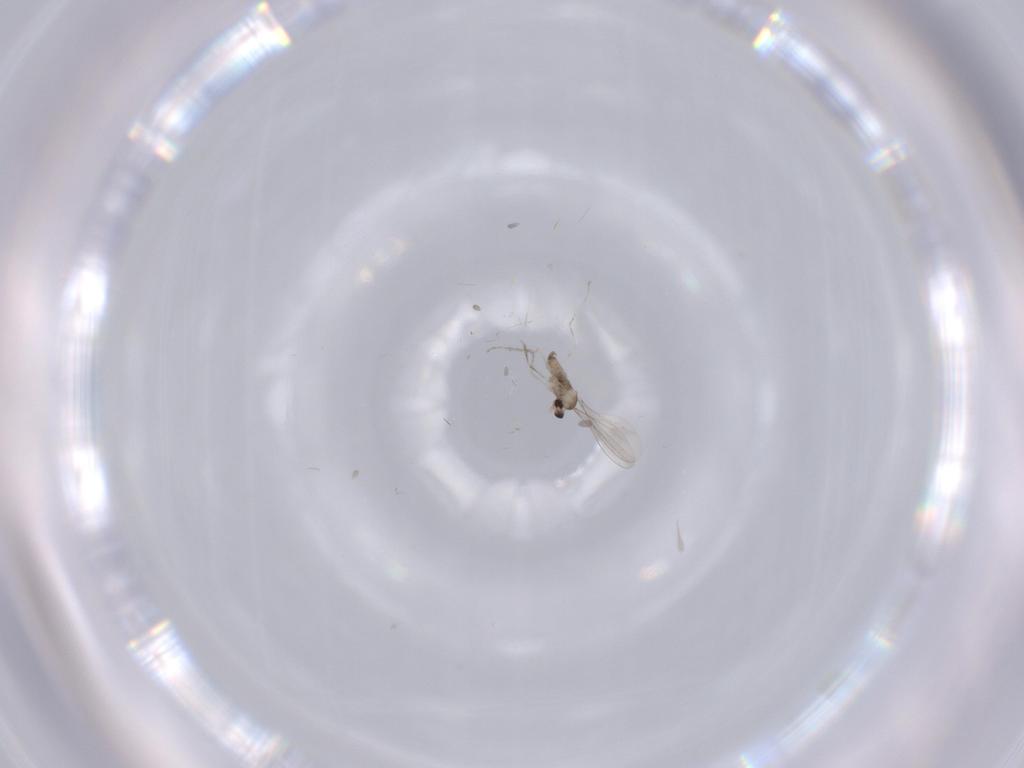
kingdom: Animalia
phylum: Arthropoda
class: Insecta
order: Diptera
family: Cecidomyiidae
